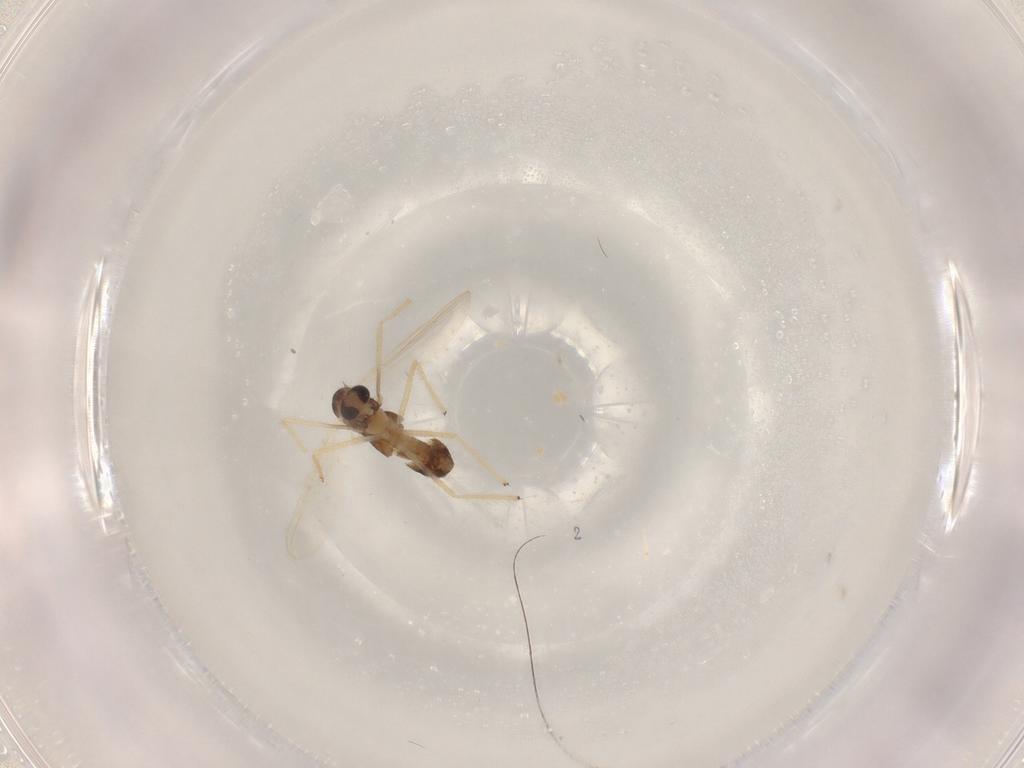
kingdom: Animalia
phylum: Arthropoda
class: Insecta
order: Diptera
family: Chironomidae
